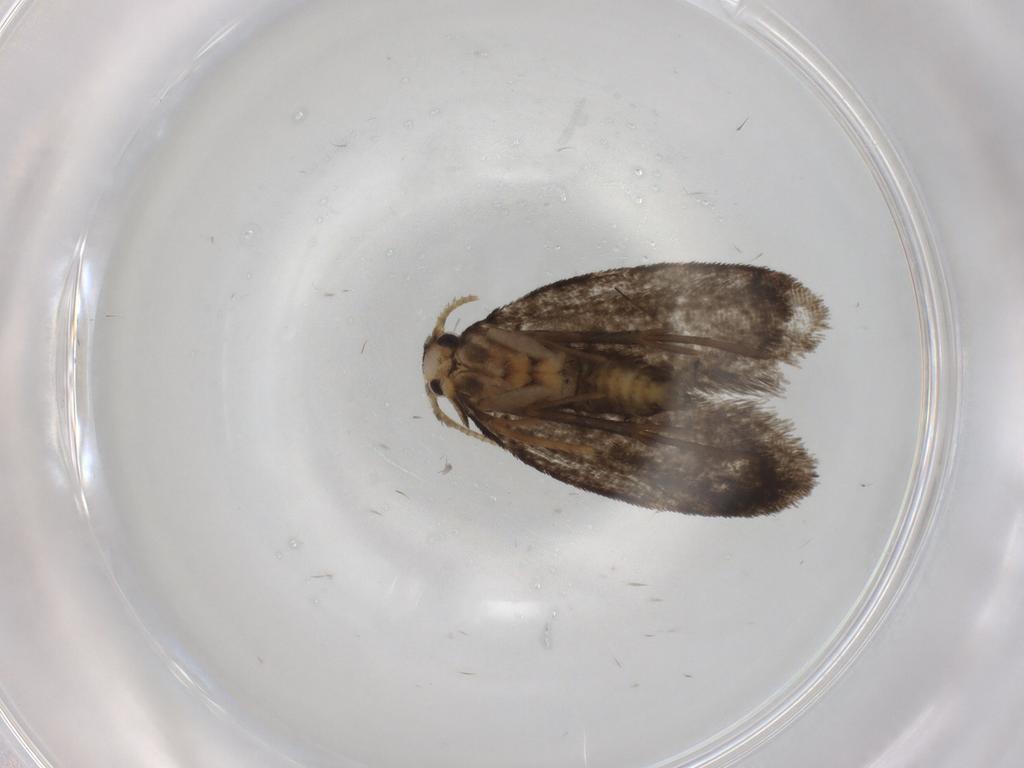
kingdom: Animalia
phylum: Arthropoda
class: Insecta
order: Lepidoptera
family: Psychidae
